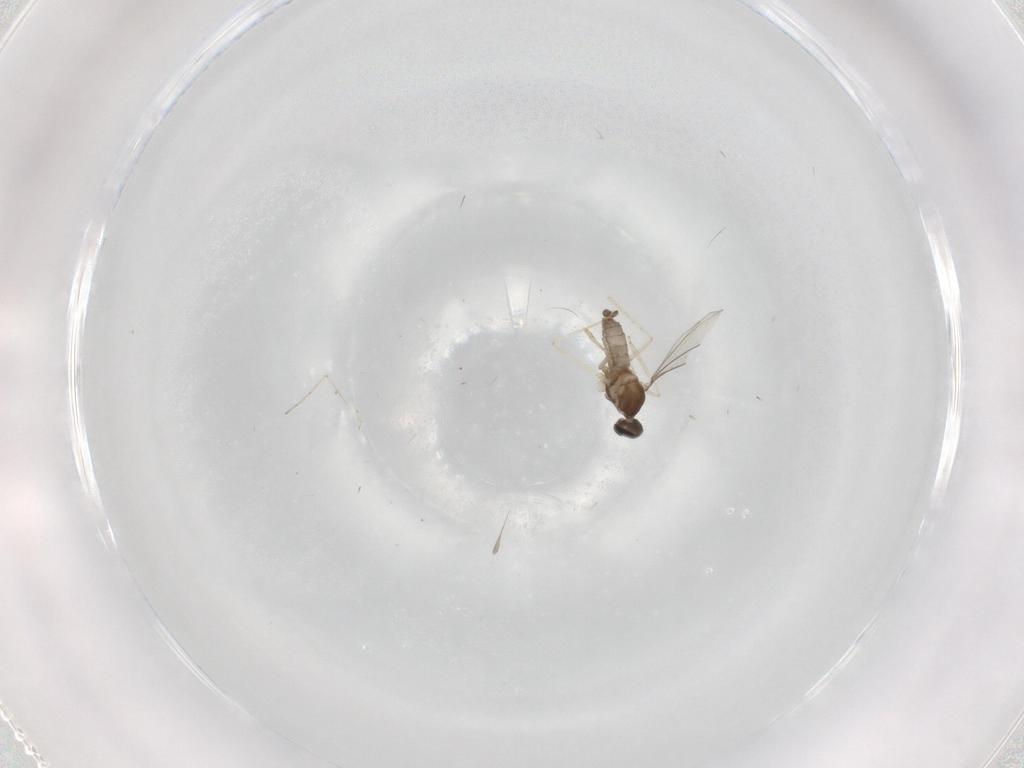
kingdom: Animalia
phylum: Arthropoda
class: Insecta
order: Diptera
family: Cecidomyiidae
